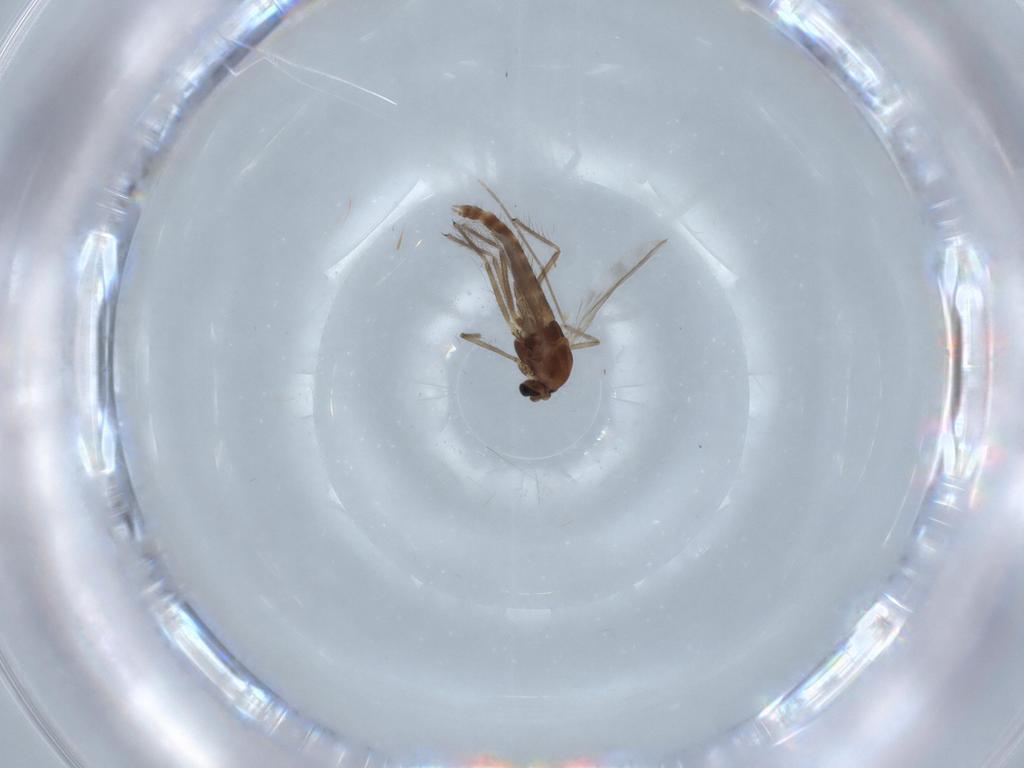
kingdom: Animalia
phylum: Arthropoda
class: Insecta
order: Diptera
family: Chironomidae
